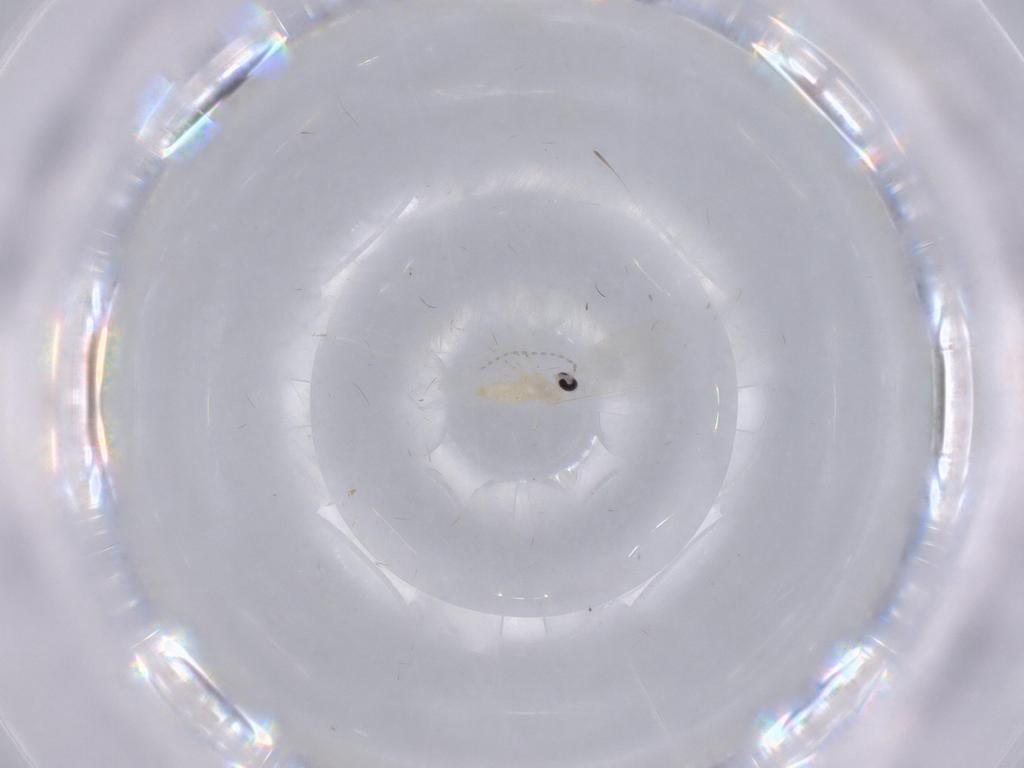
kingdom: Animalia
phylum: Arthropoda
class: Insecta
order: Diptera
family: Cecidomyiidae
